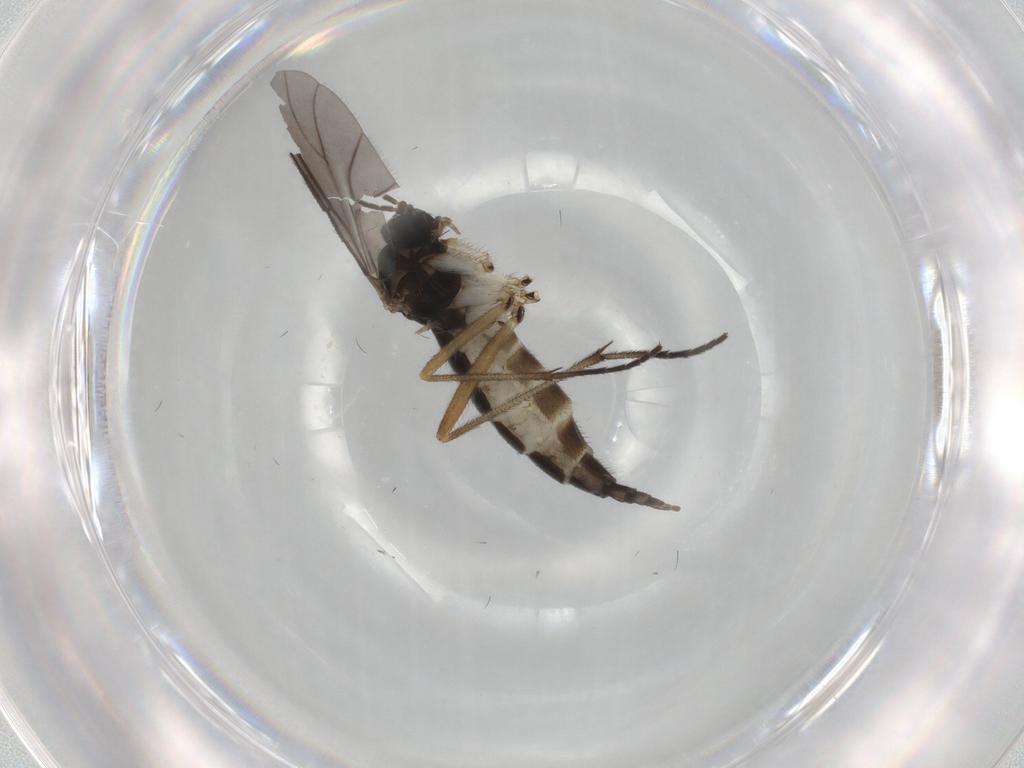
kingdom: Animalia
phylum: Arthropoda
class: Insecta
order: Diptera
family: Sciaridae
